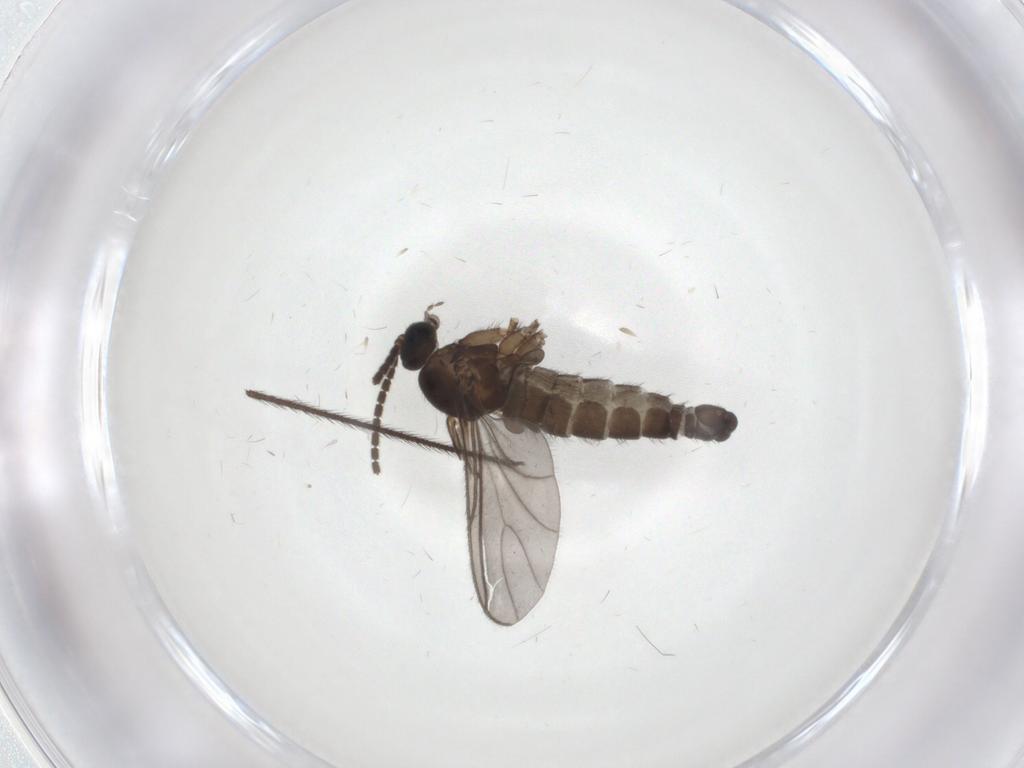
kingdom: Animalia
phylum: Arthropoda
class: Insecta
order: Diptera
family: Sciaridae
